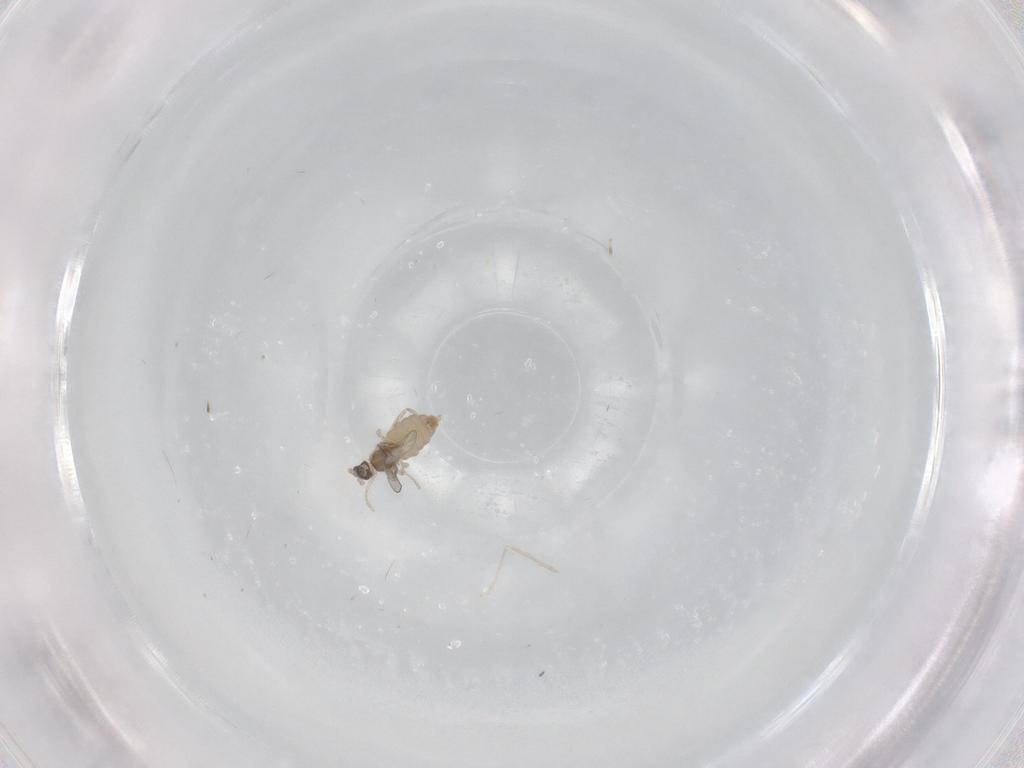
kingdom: Animalia
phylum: Arthropoda
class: Insecta
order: Diptera
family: Cecidomyiidae
